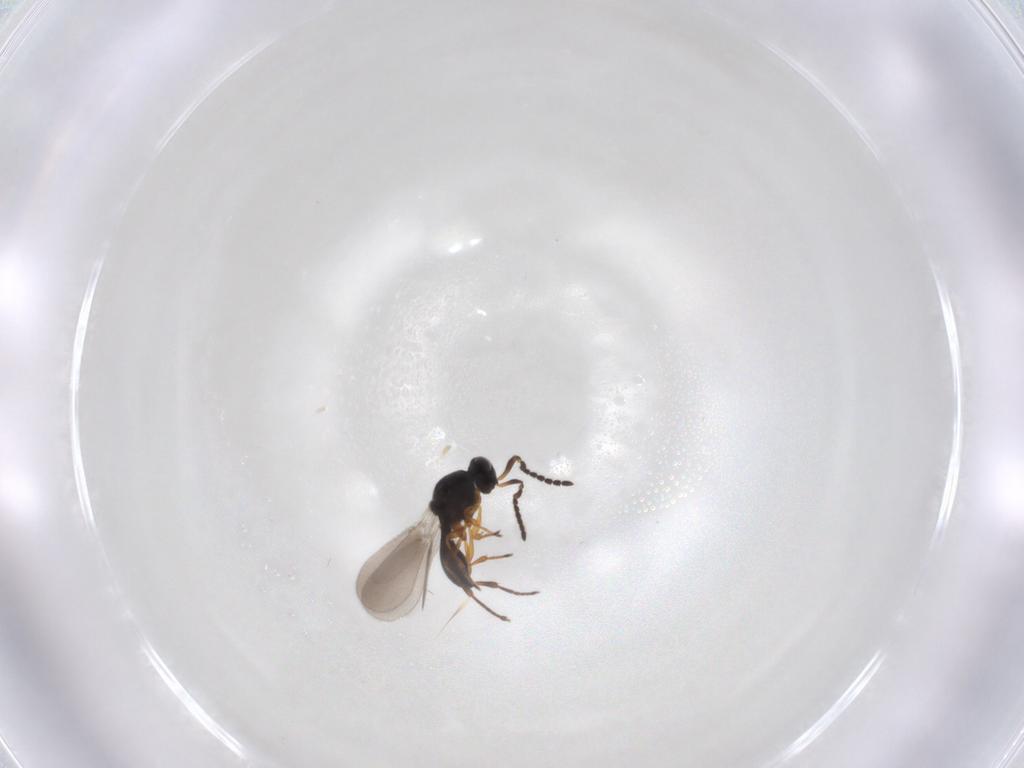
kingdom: Animalia
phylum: Arthropoda
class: Insecta
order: Hymenoptera
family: Platygastridae
